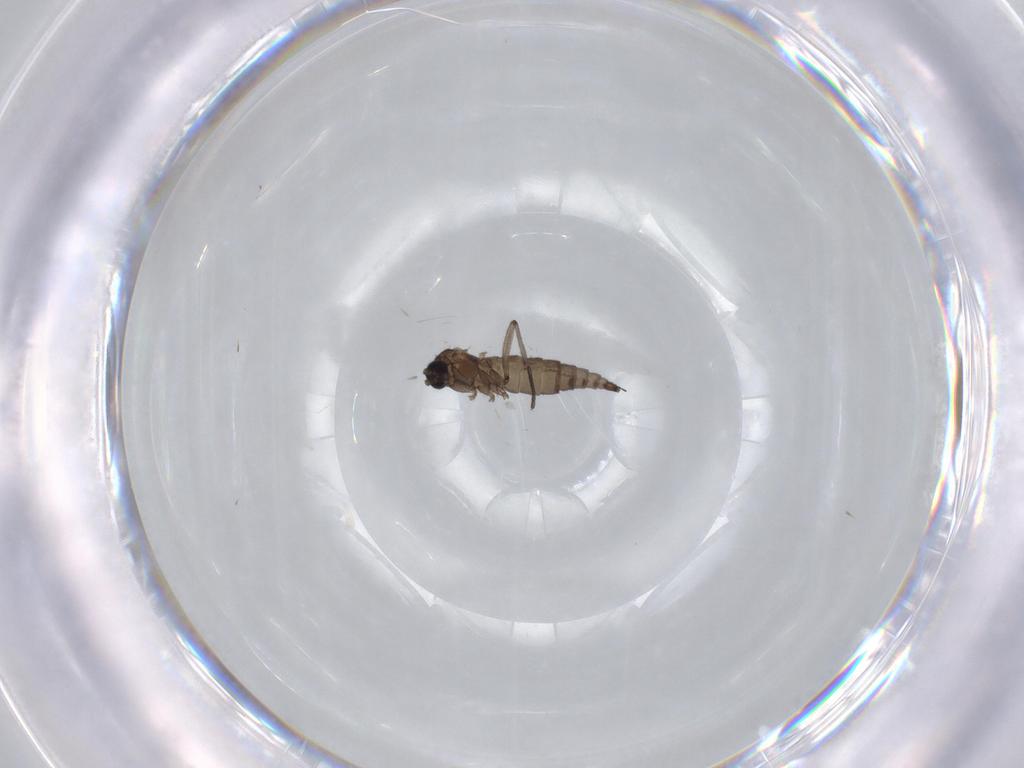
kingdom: Animalia
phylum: Arthropoda
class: Insecta
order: Diptera
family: Sciaridae
